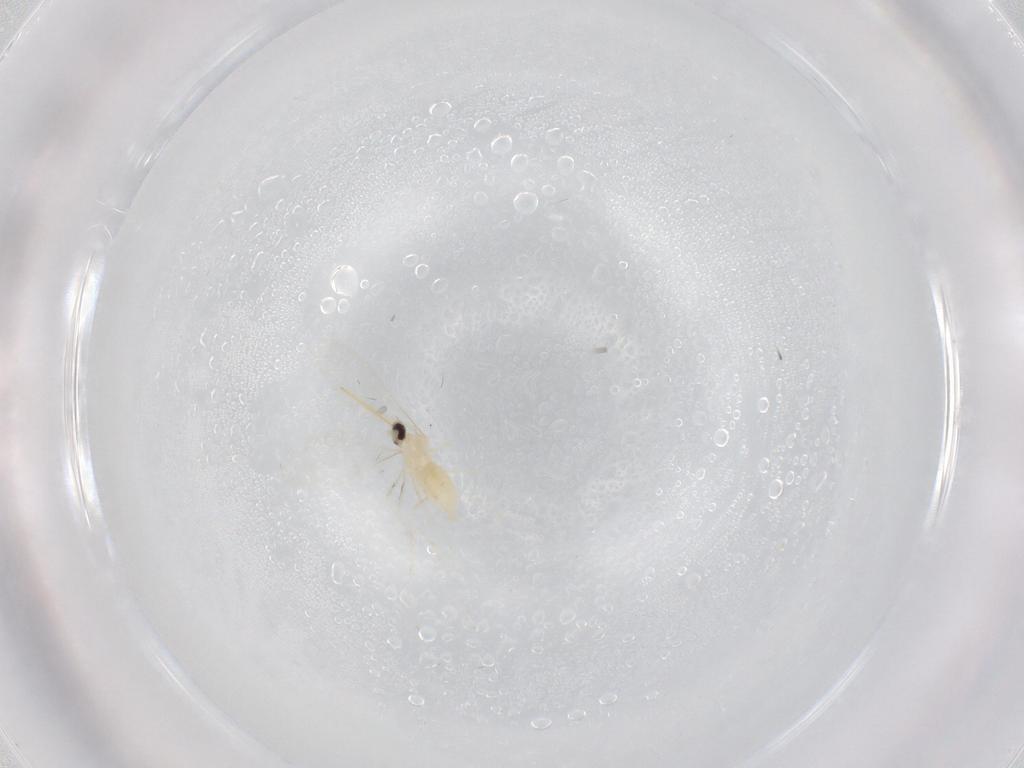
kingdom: Animalia
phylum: Arthropoda
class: Insecta
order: Diptera
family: Cecidomyiidae
